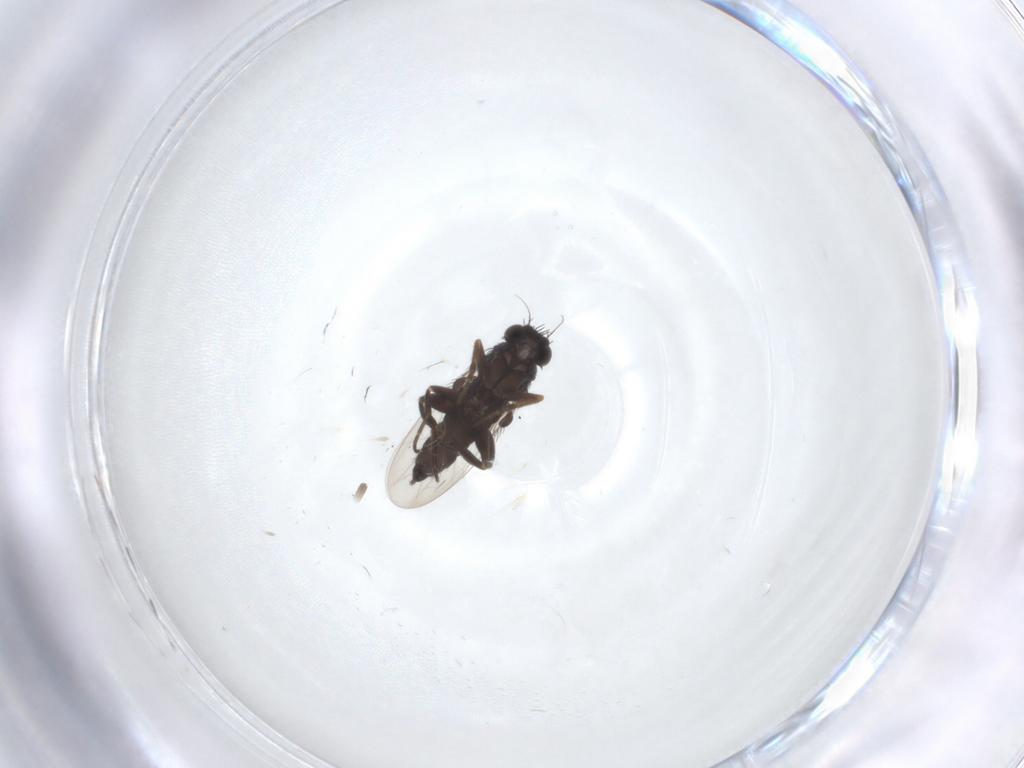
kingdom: Animalia
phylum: Arthropoda
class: Insecta
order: Diptera
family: Phoridae
